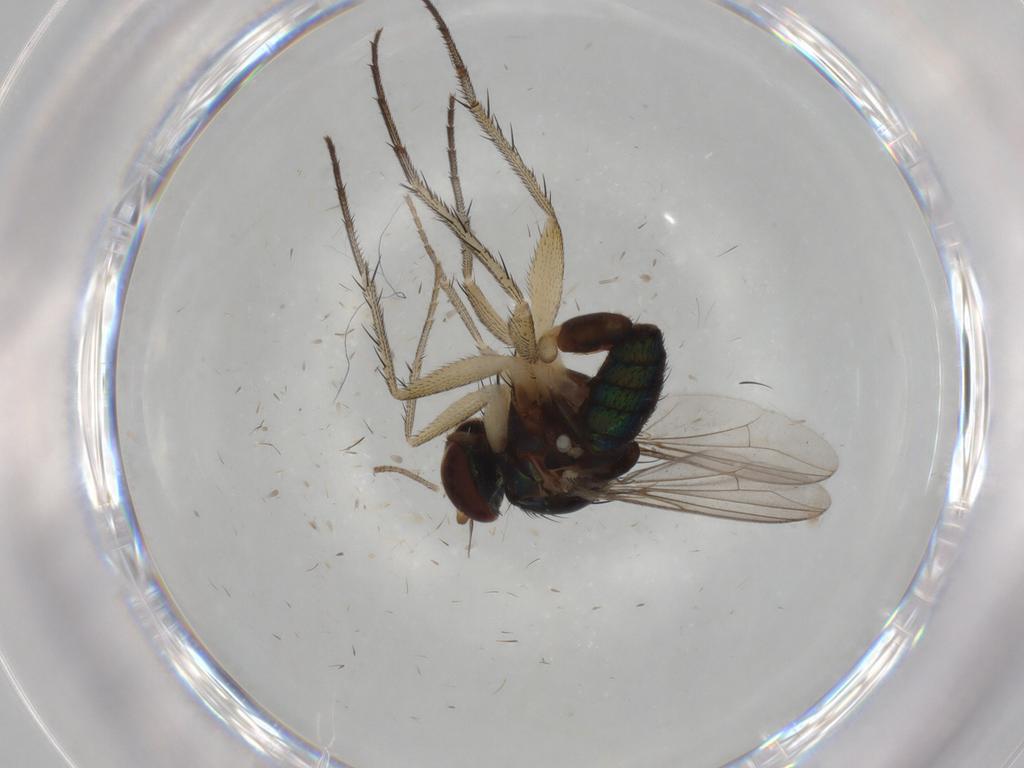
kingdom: Animalia
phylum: Arthropoda
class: Insecta
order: Diptera
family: Dolichopodidae
